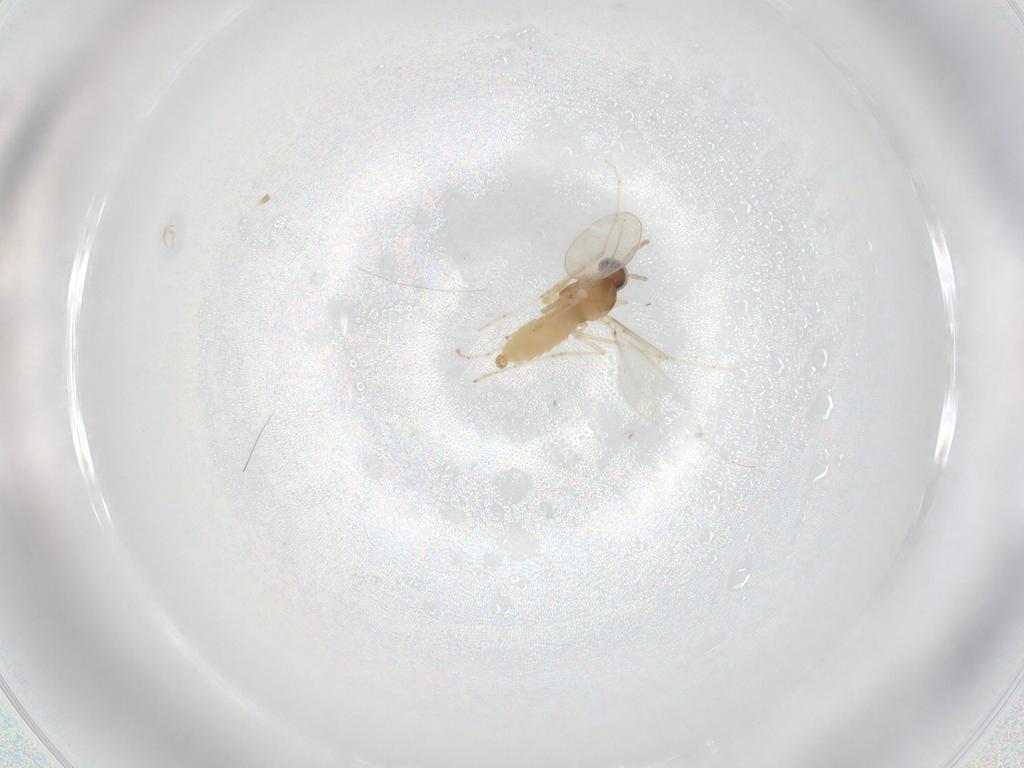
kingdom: Animalia
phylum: Arthropoda
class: Insecta
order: Diptera
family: Cecidomyiidae
